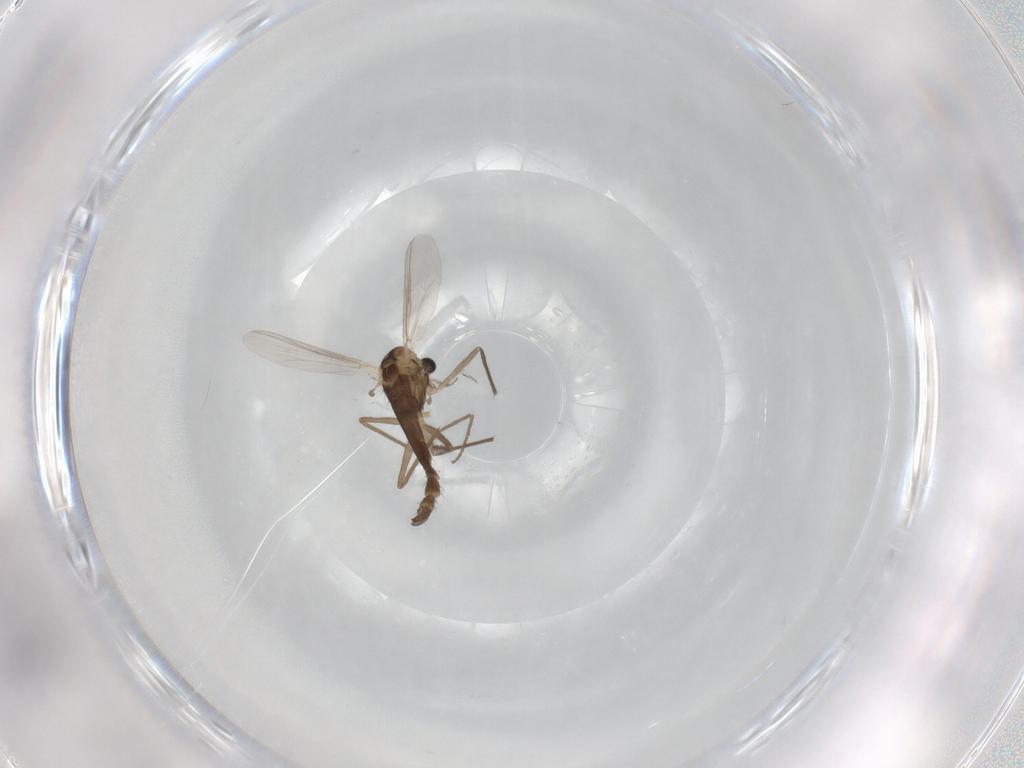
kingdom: Animalia
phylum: Arthropoda
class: Insecta
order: Diptera
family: Chironomidae
